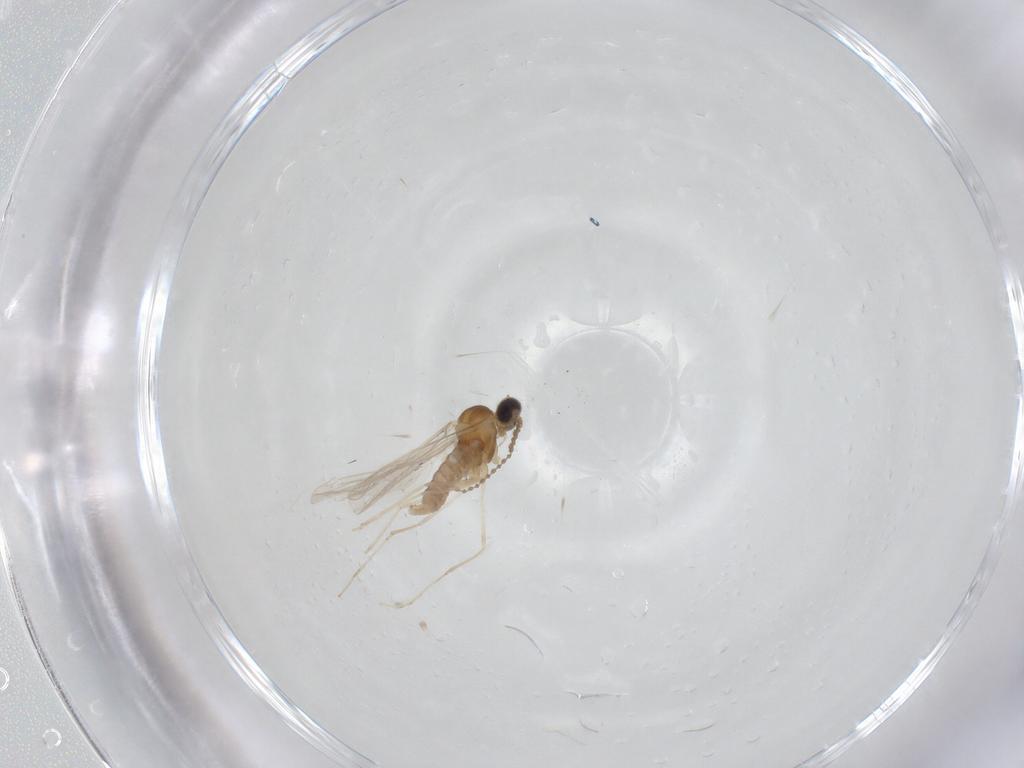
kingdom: Animalia
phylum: Arthropoda
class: Insecta
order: Diptera
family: Cecidomyiidae
